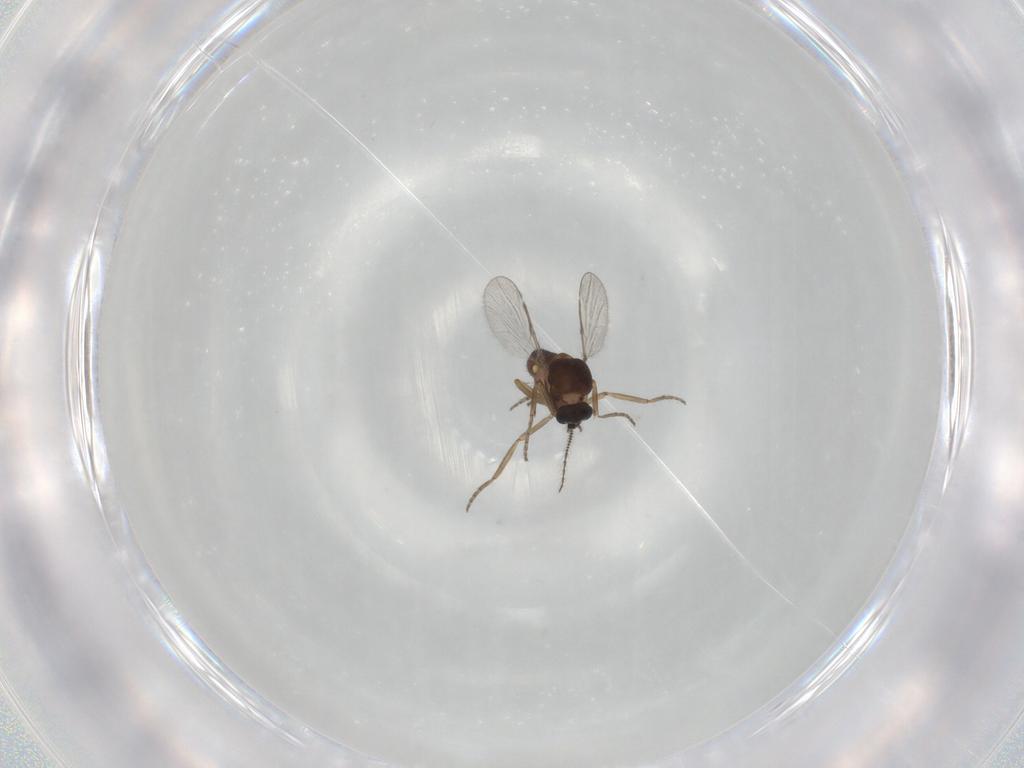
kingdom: Animalia
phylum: Arthropoda
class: Insecta
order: Diptera
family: Ceratopogonidae
